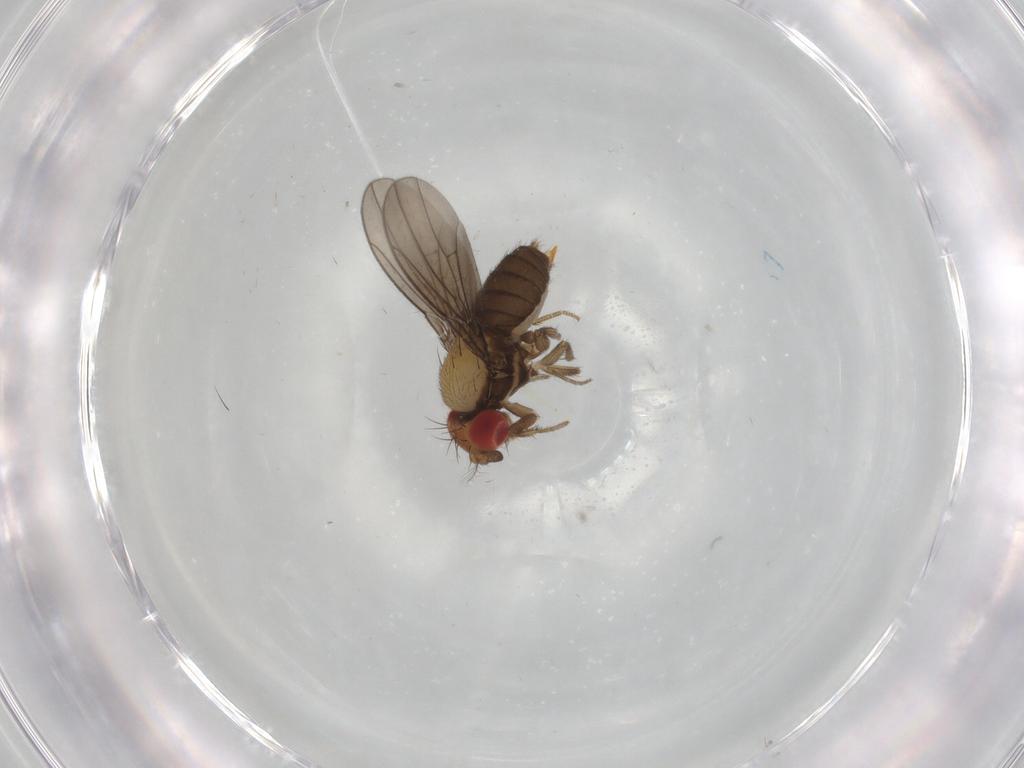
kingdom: Animalia
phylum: Arthropoda
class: Insecta
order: Diptera
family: Drosophilidae
